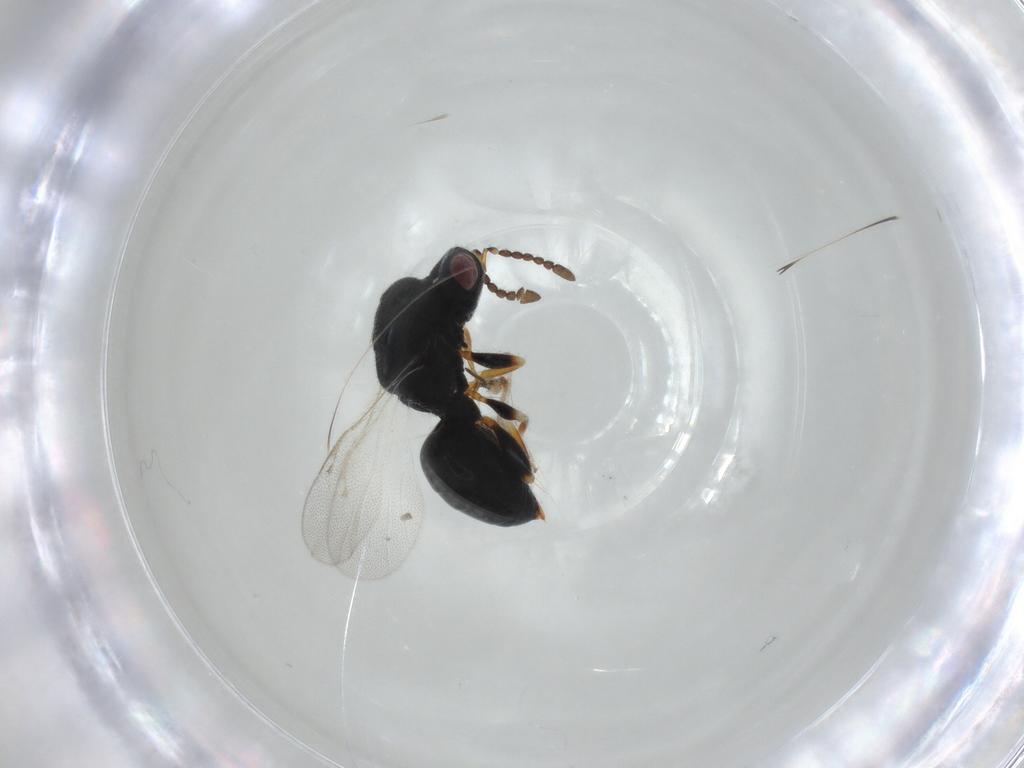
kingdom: Animalia
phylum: Arthropoda
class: Insecta
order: Hymenoptera
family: Eurytomidae
